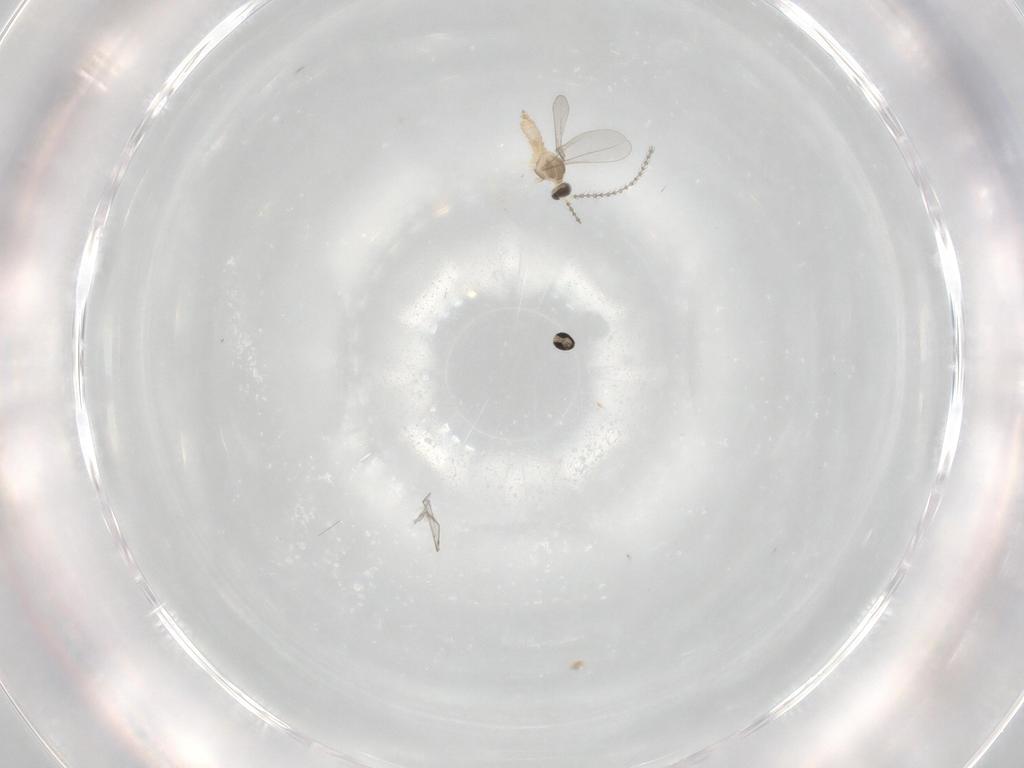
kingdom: Animalia
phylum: Arthropoda
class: Insecta
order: Diptera
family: Cecidomyiidae
